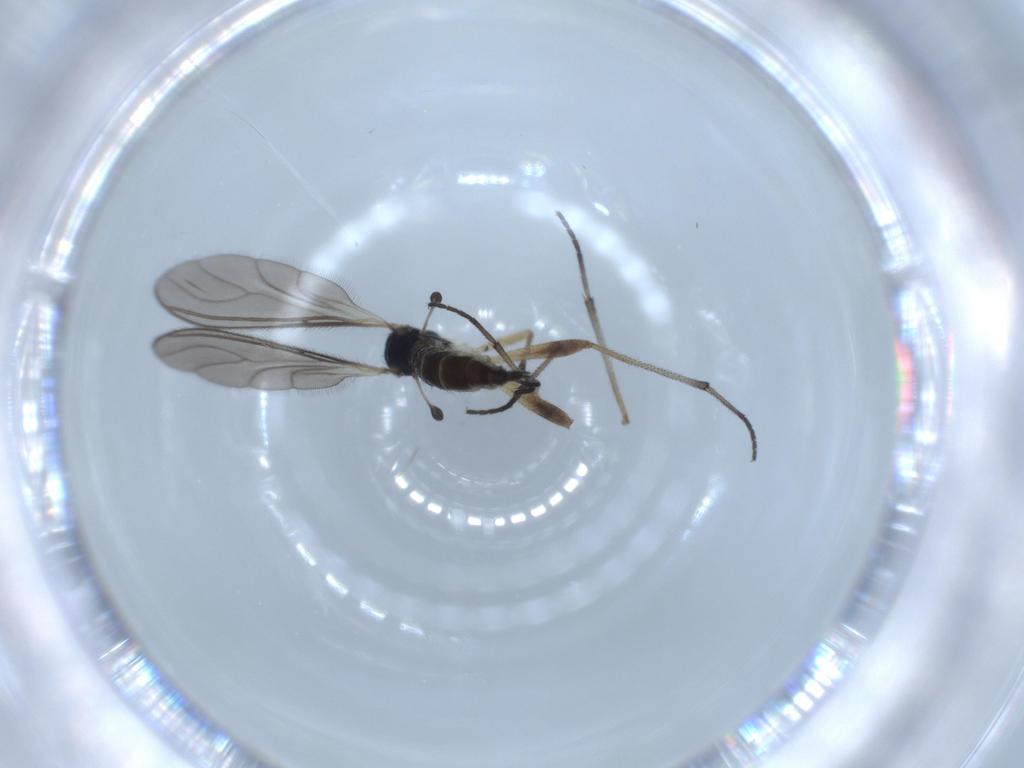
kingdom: Animalia
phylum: Arthropoda
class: Insecta
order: Diptera
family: Sciaridae
